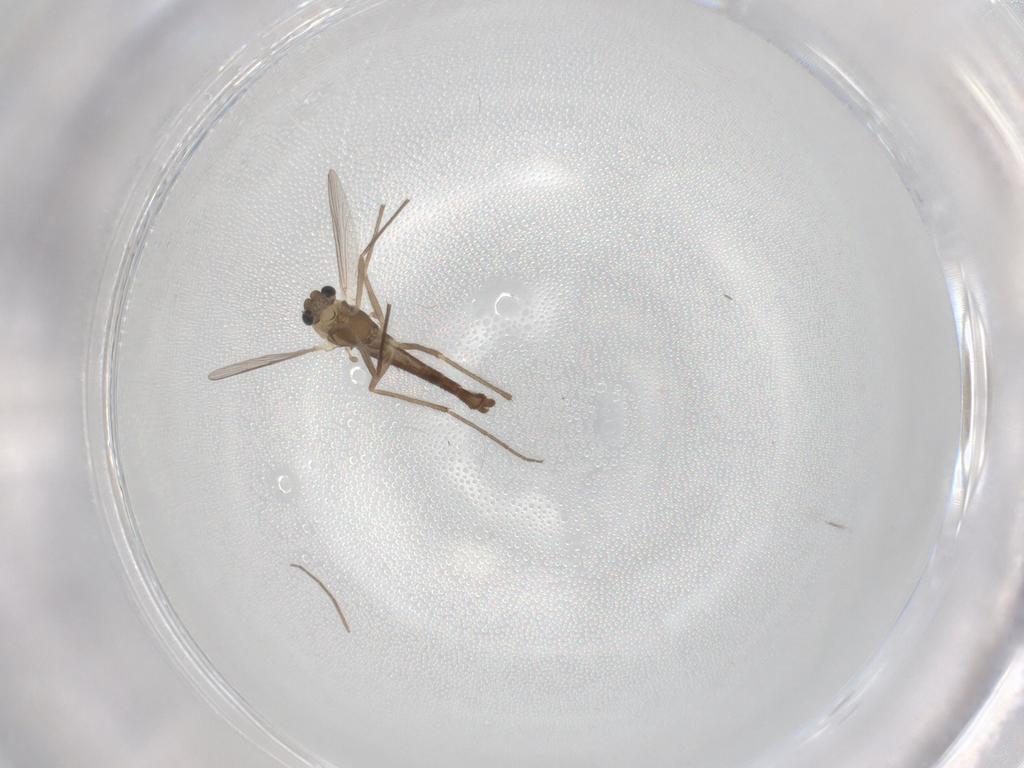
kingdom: Animalia
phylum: Arthropoda
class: Insecta
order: Diptera
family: Chironomidae
